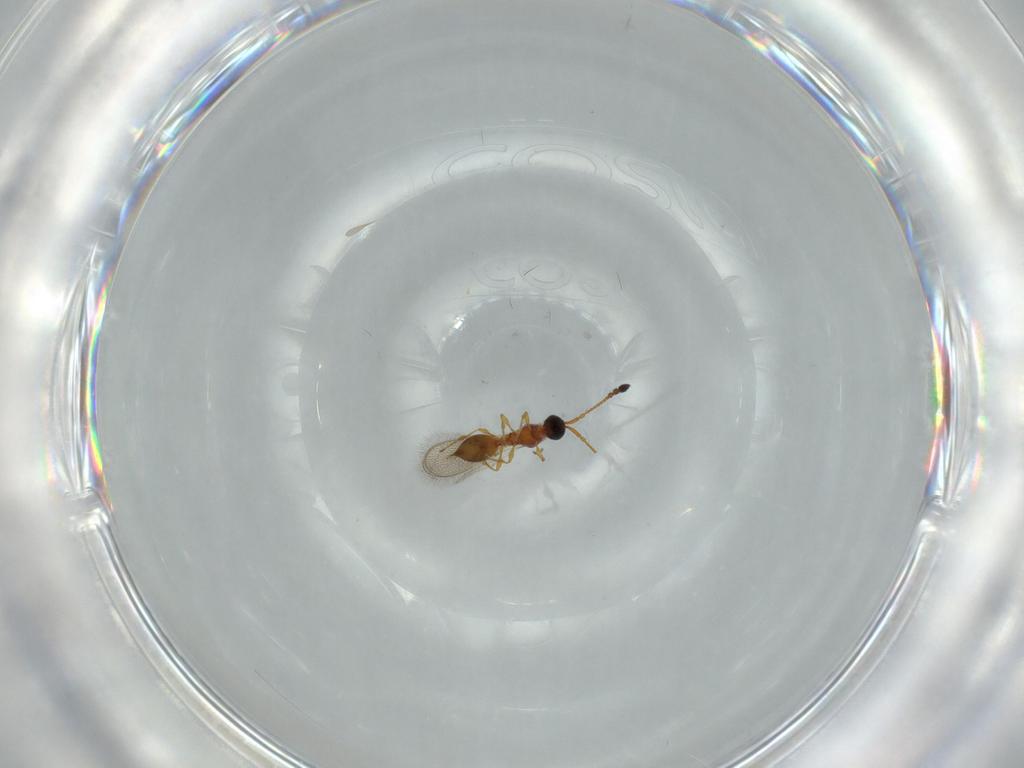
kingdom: Animalia
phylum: Arthropoda
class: Insecta
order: Hymenoptera
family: Diapriidae
